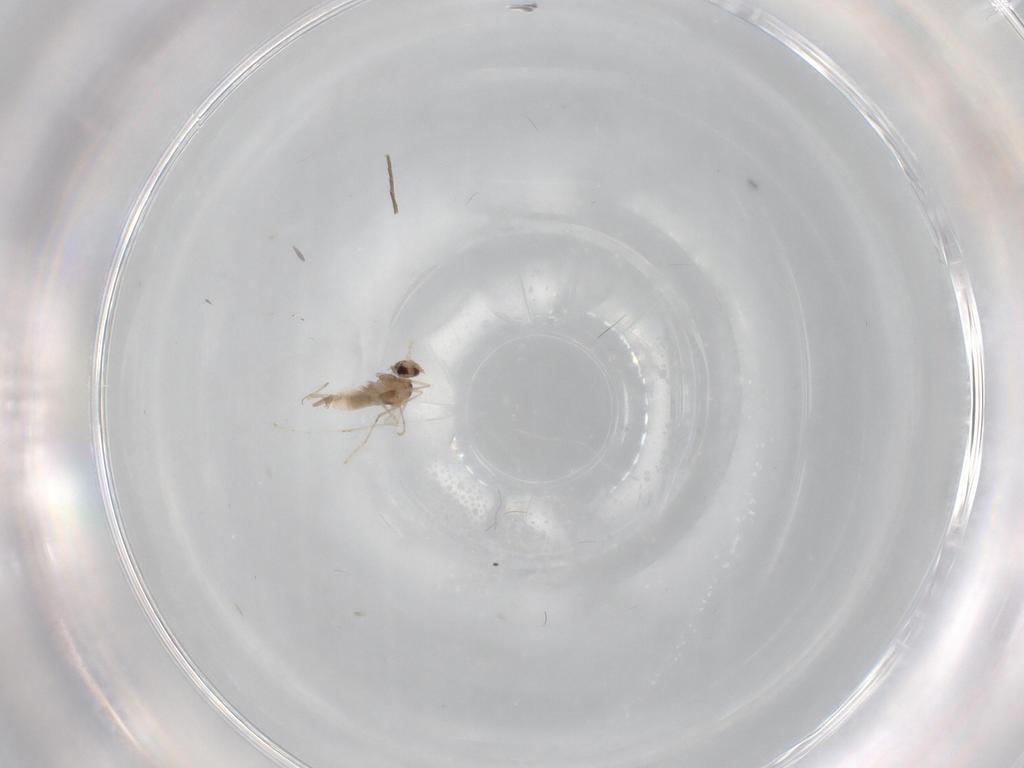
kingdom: Animalia
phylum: Arthropoda
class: Insecta
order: Diptera
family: Cecidomyiidae
